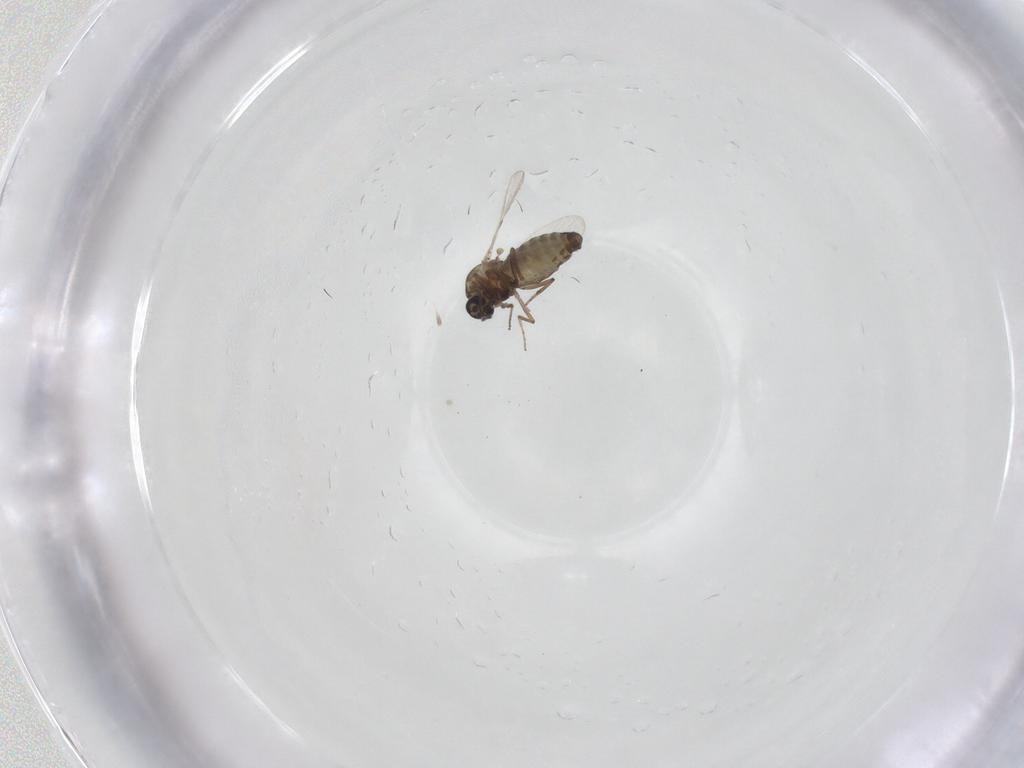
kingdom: Animalia
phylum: Arthropoda
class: Insecta
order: Diptera
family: Ceratopogonidae
